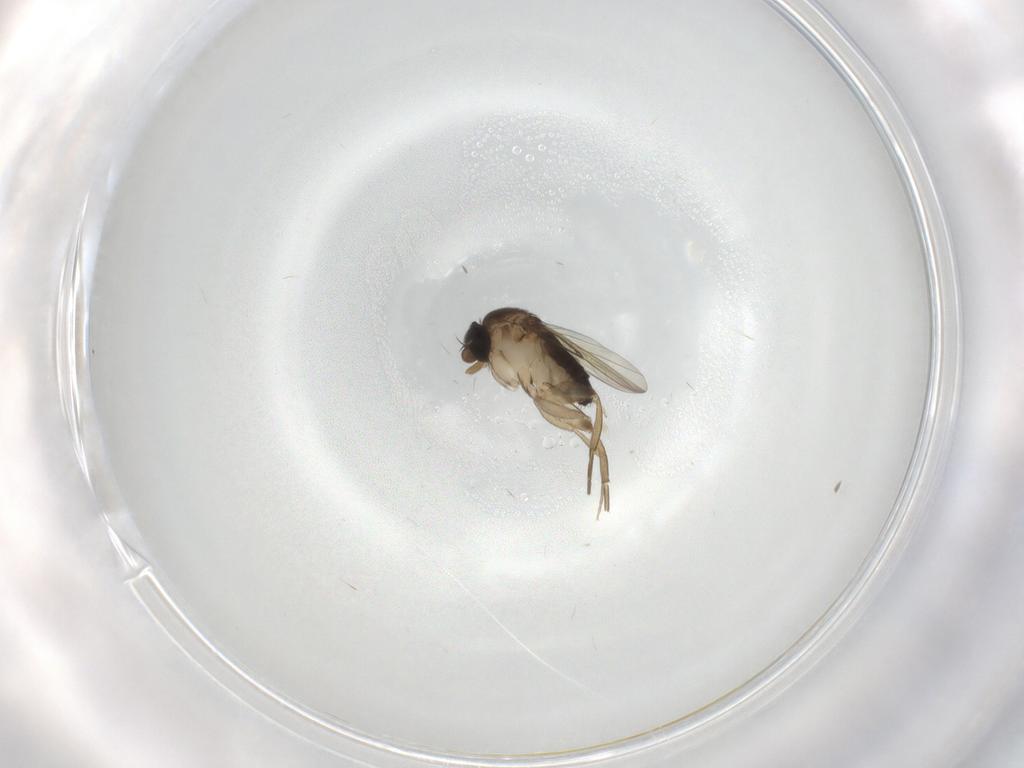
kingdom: Animalia
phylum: Arthropoda
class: Insecta
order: Diptera
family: Phoridae
